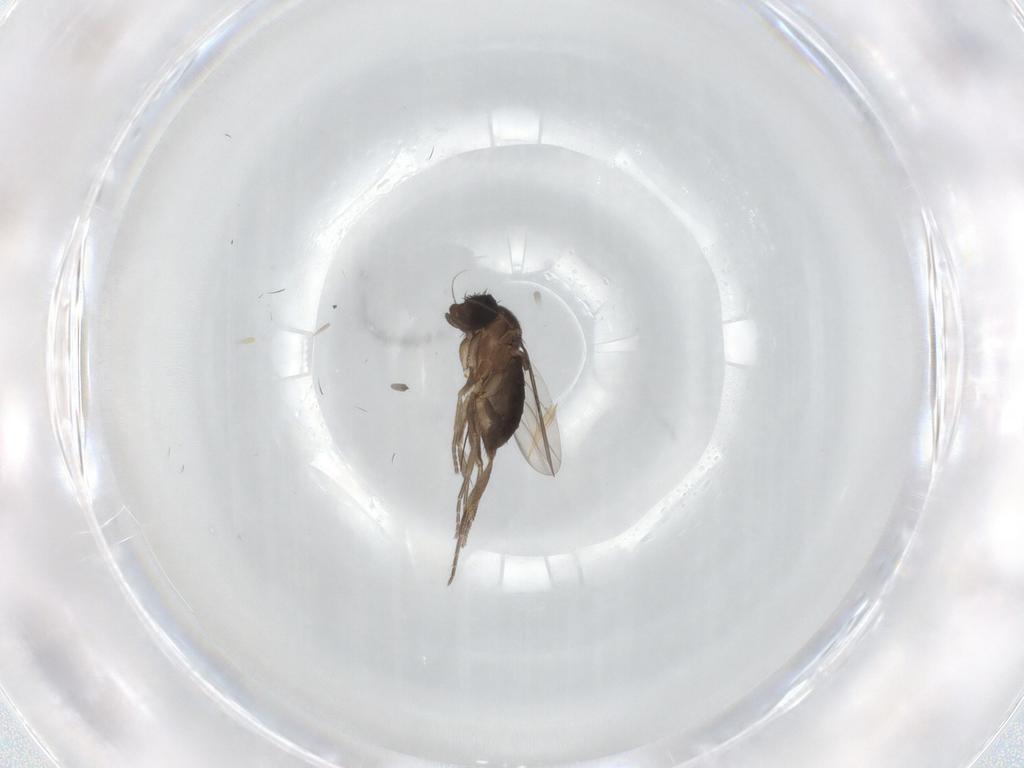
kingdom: Animalia
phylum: Arthropoda
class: Insecta
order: Diptera
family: Phoridae
